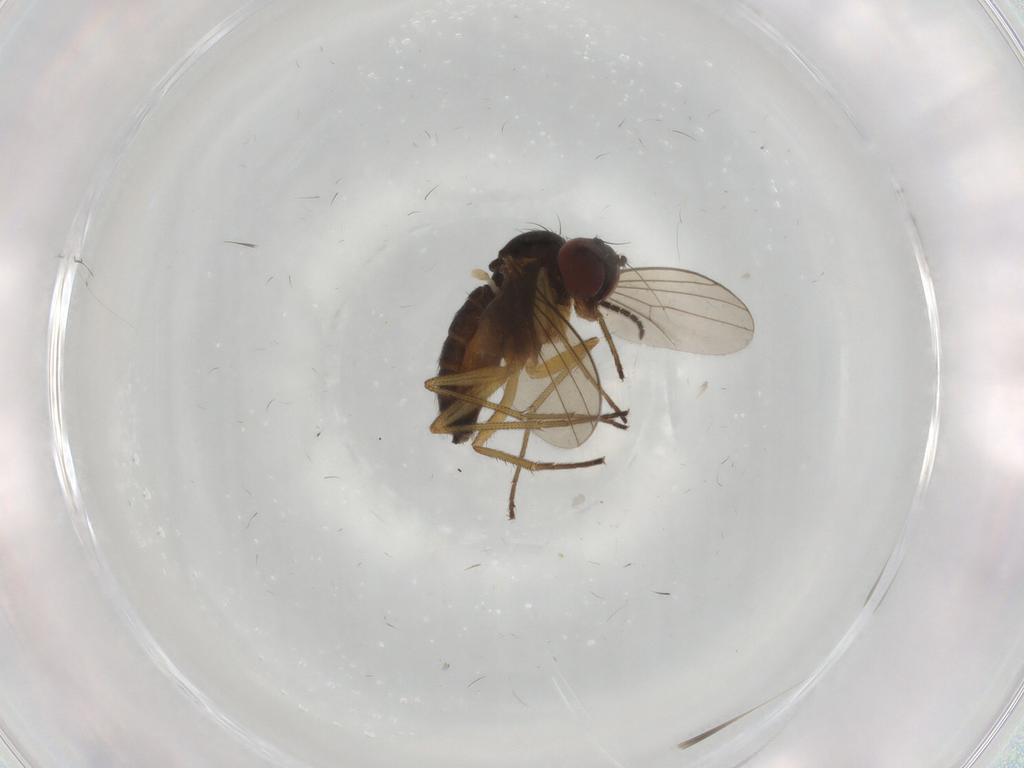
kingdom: Animalia
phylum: Arthropoda
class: Insecta
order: Diptera
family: Dolichopodidae
